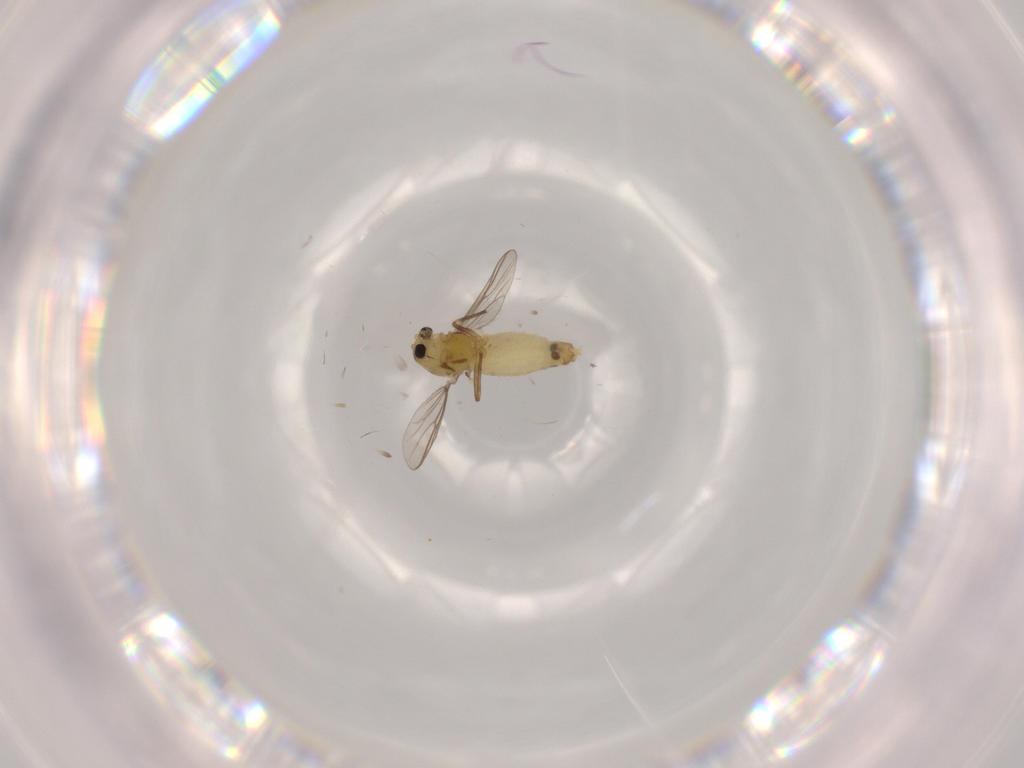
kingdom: Animalia
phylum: Arthropoda
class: Insecta
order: Diptera
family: Chironomidae
